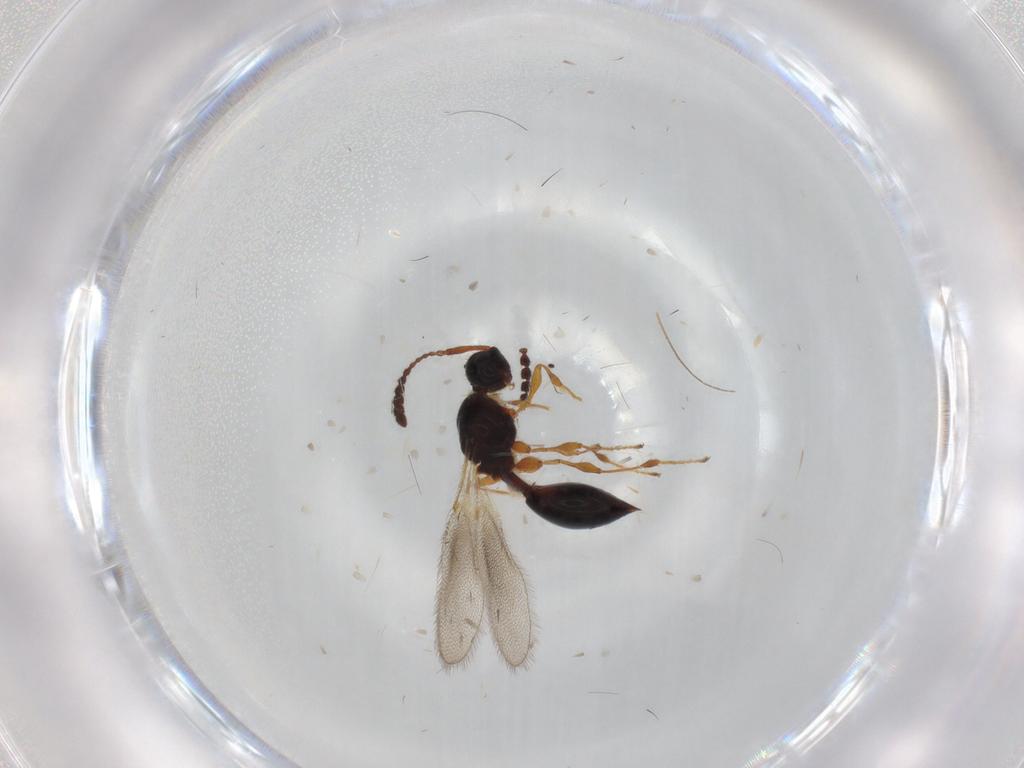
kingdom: Animalia
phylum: Arthropoda
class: Insecta
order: Hymenoptera
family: Diapriidae
